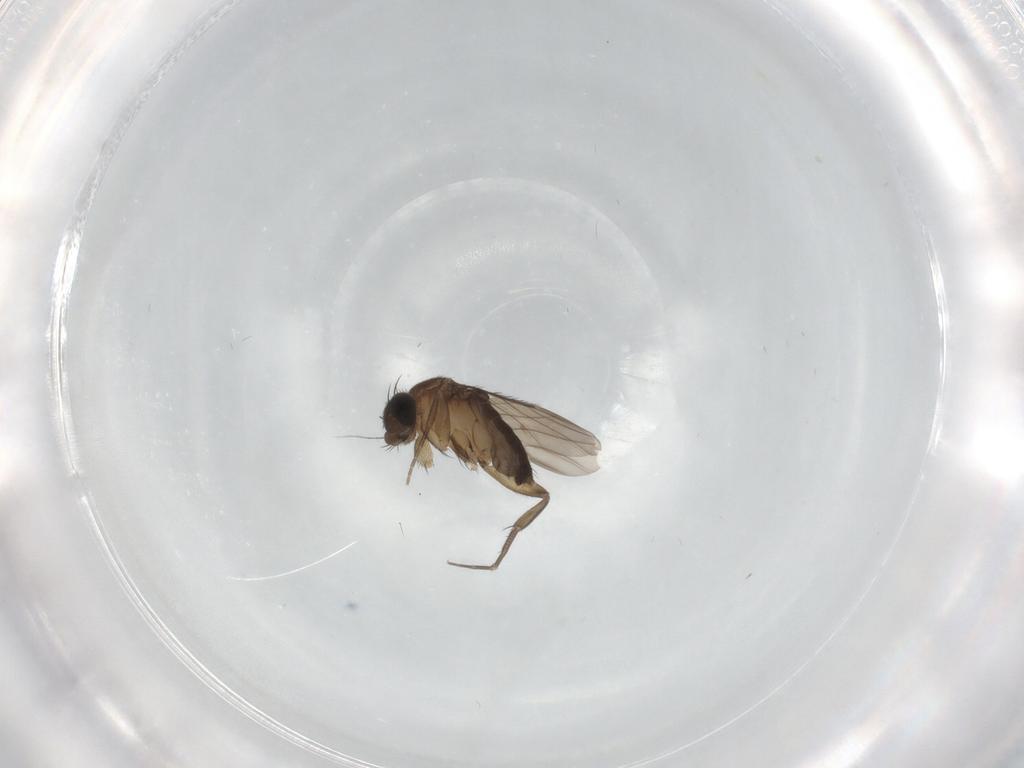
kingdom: Animalia
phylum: Arthropoda
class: Insecta
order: Diptera
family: Phoridae
